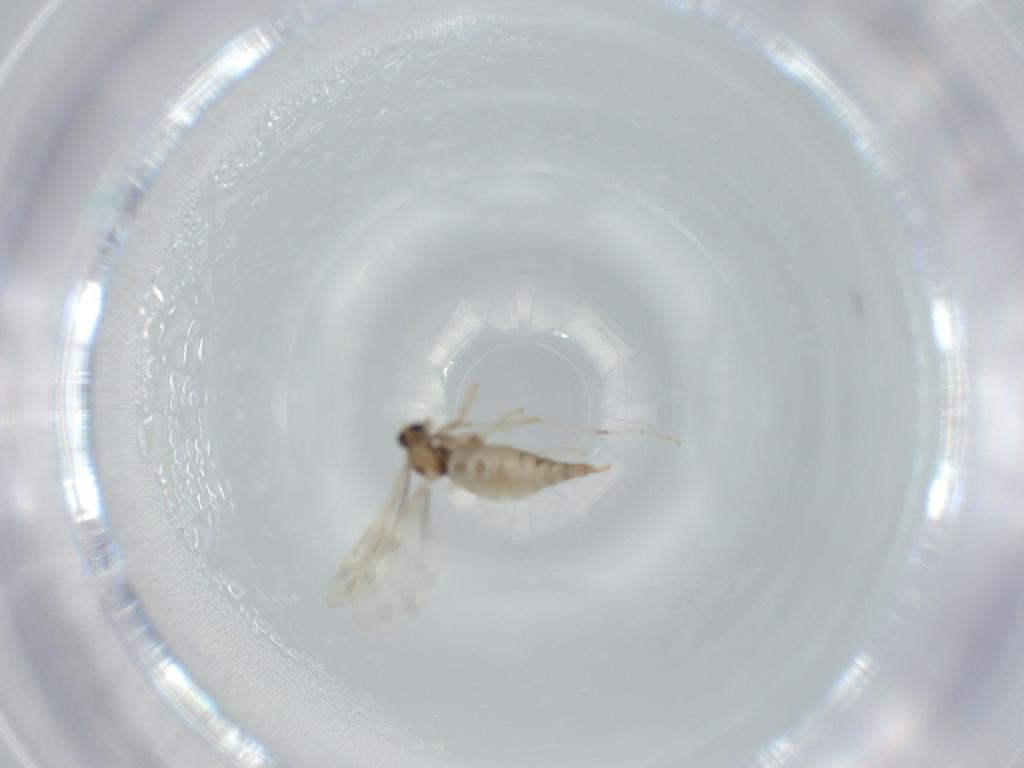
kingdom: Animalia
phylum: Arthropoda
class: Insecta
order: Diptera
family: Cecidomyiidae
